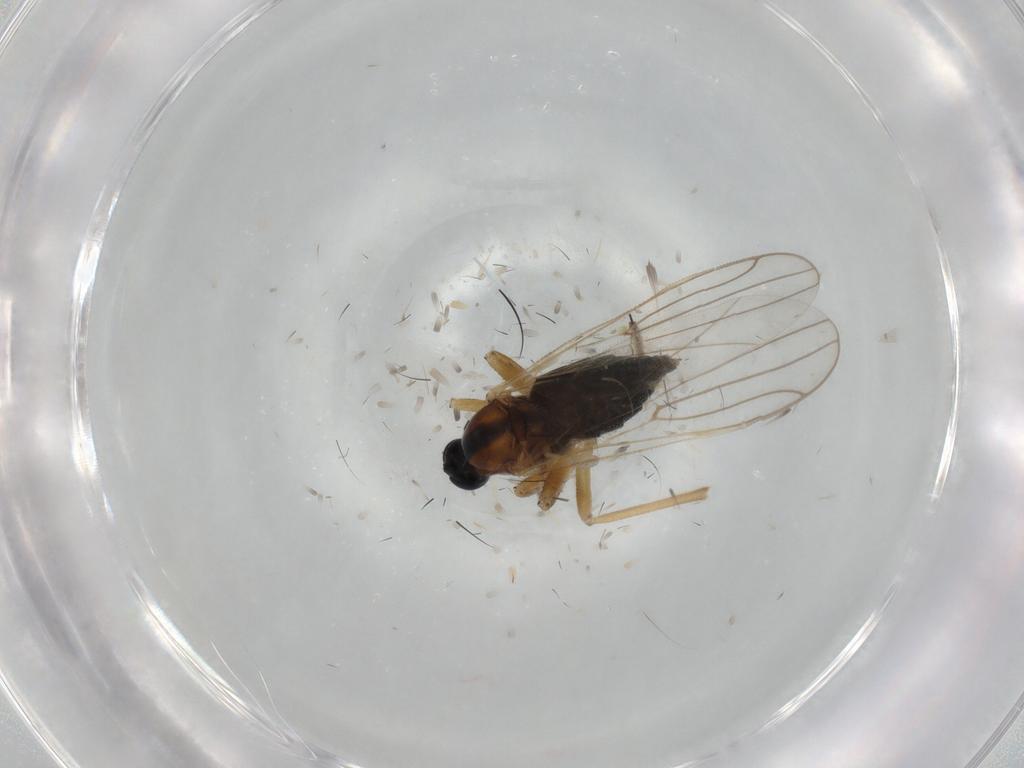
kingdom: Animalia
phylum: Arthropoda
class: Insecta
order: Diptera
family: Hybotidae
